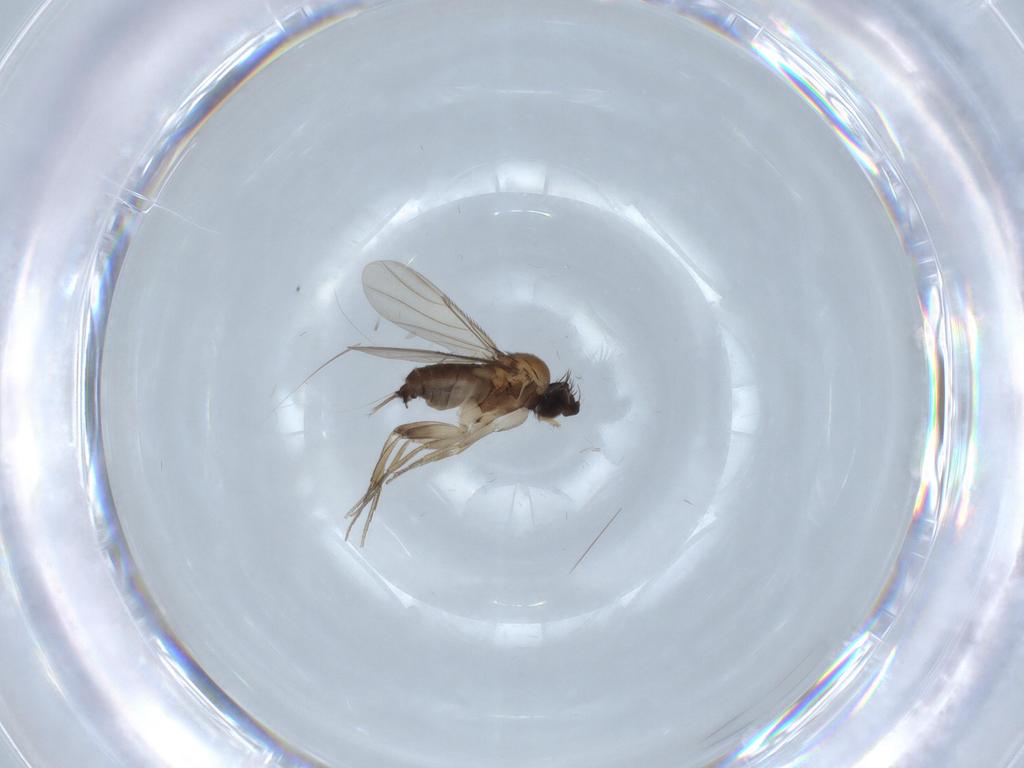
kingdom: Animalia
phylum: Arthropoda
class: Insecta
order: Diptera
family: Phoridae
